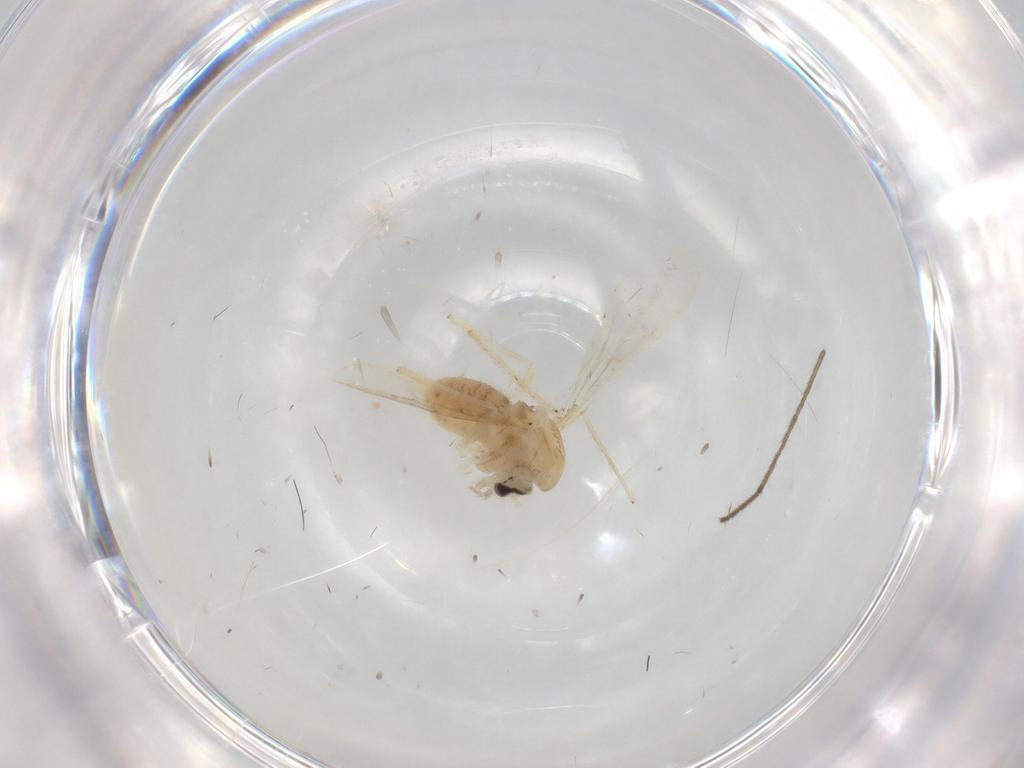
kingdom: Animalia
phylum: Arthropoda
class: Insecta
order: Diptera
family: Chironomidae
